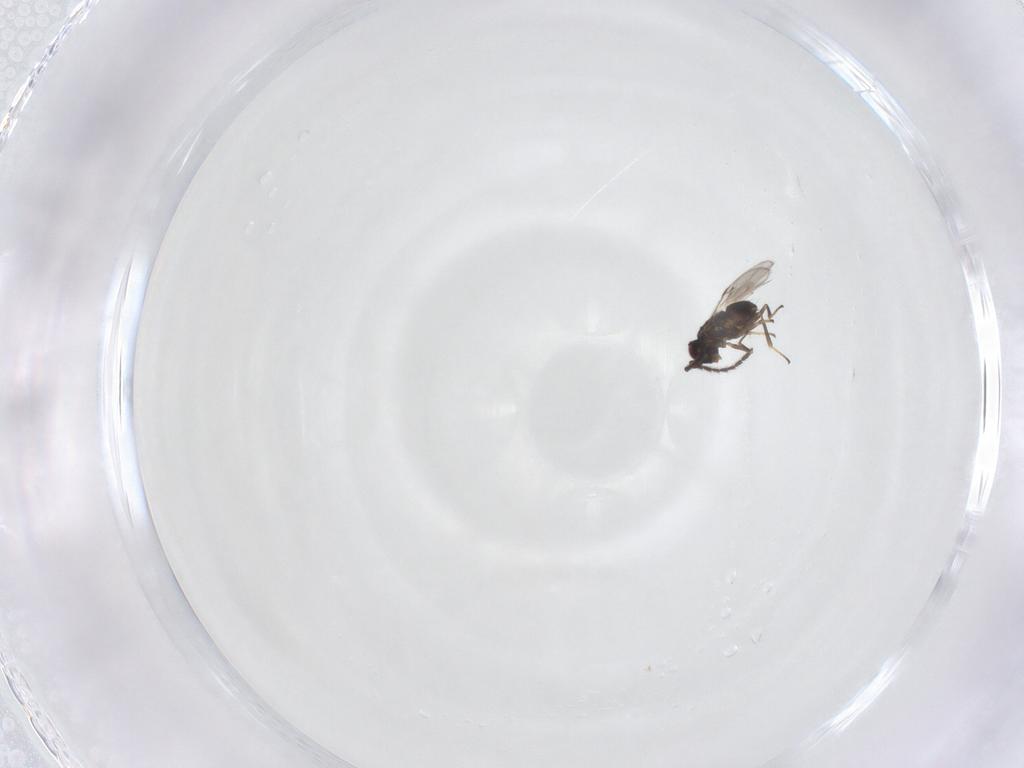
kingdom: Animalia
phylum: Arthropoda
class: Insecta
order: Hymenoptera
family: Encyrtidae
